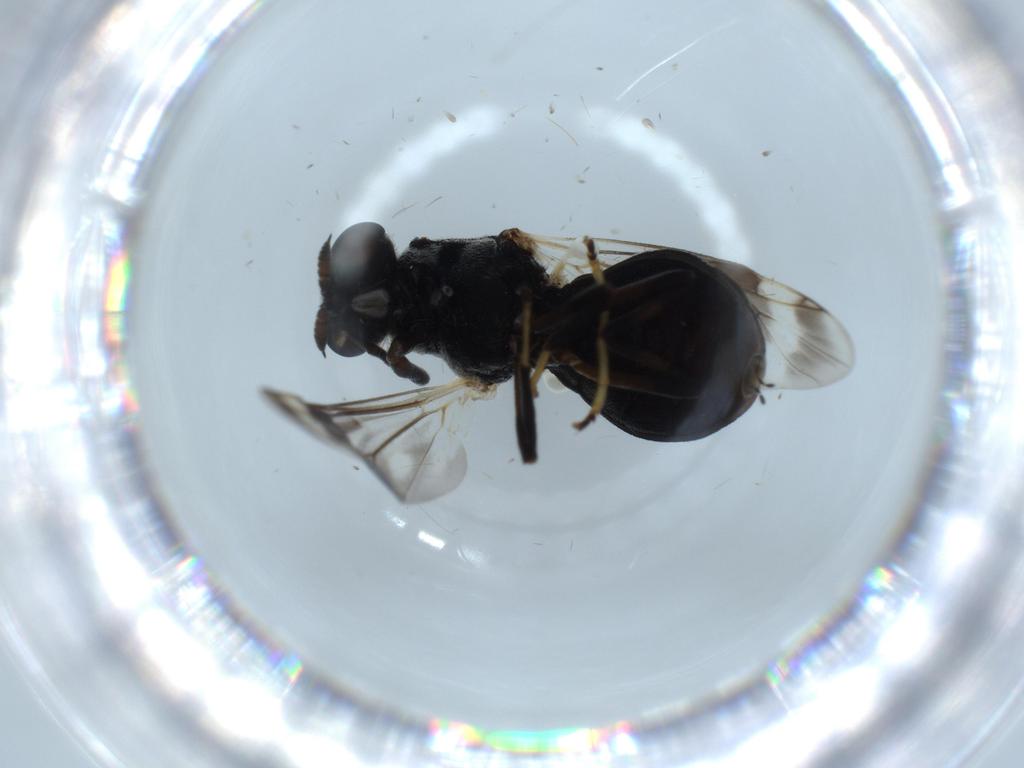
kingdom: Animalia
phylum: Arthropoda
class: Insecta
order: Diptera
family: Stratiomyidae
